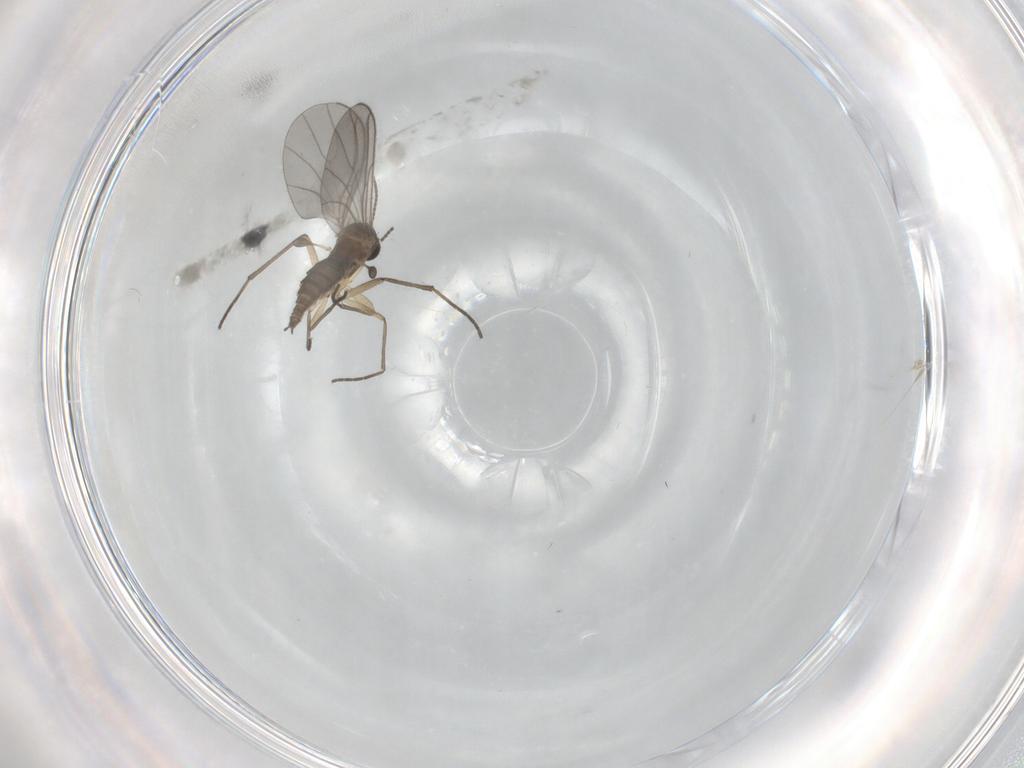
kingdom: Animalia
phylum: Arthropoda
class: Insecta
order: Diptera
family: Sciaridae
